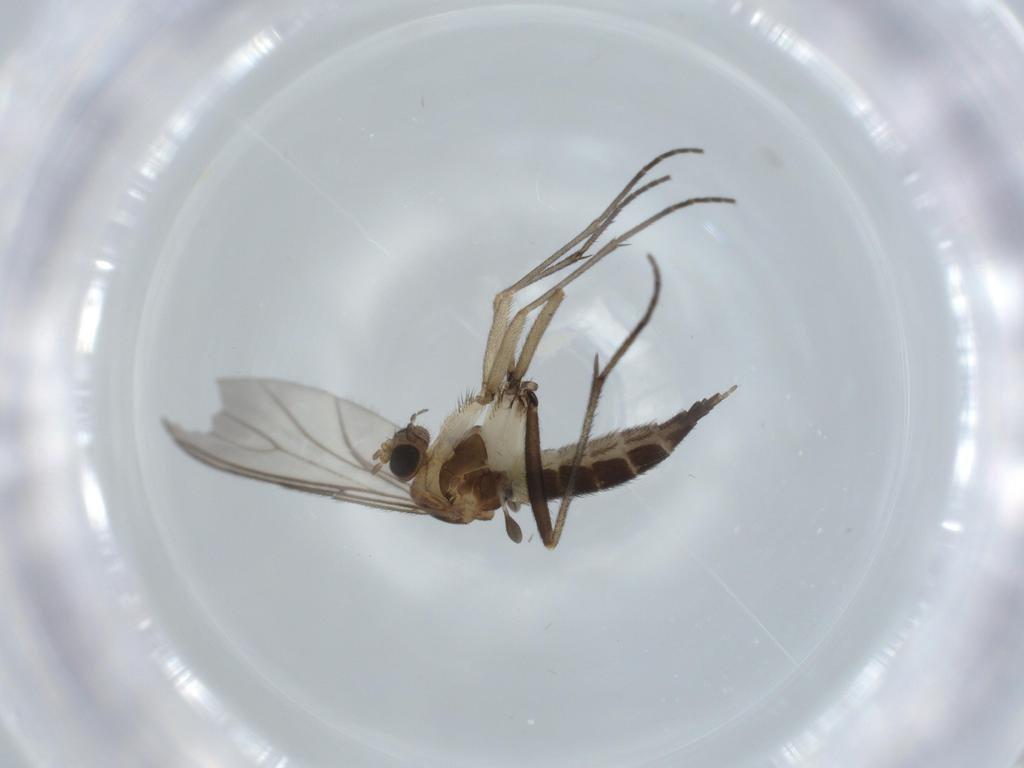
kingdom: Animalia
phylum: Arthropoda
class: Insecta
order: Diptera
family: Sciaridae
